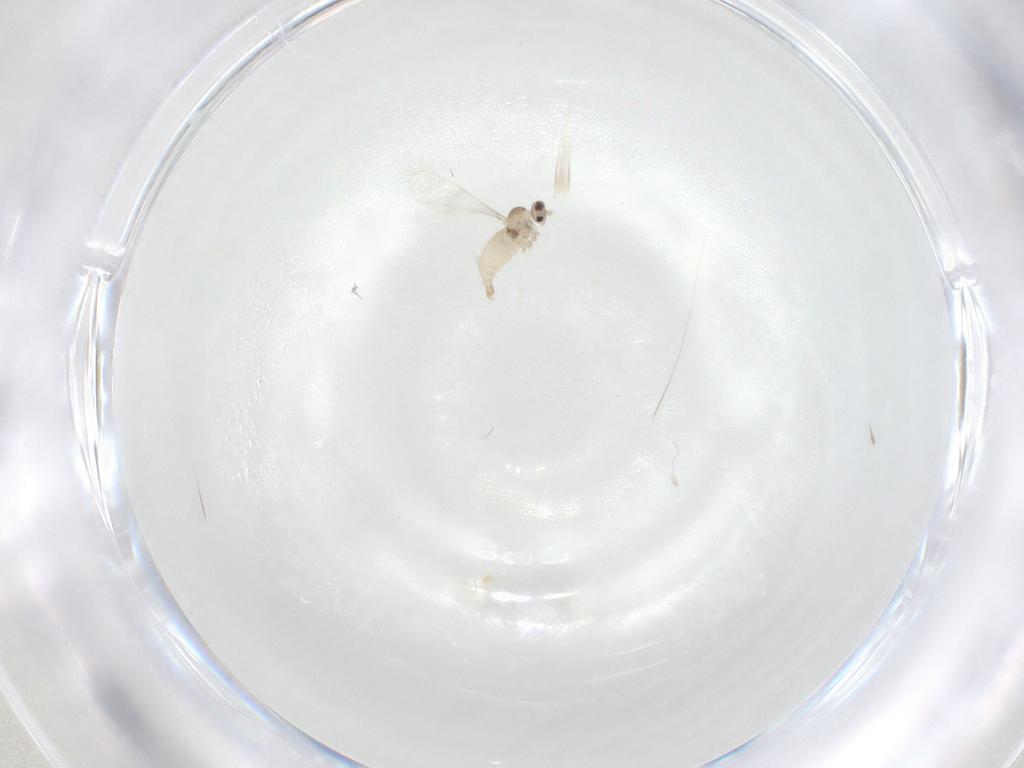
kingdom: Animalia
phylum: Arthropoda
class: Insecta
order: Diptera
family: Cecidomyiidae
